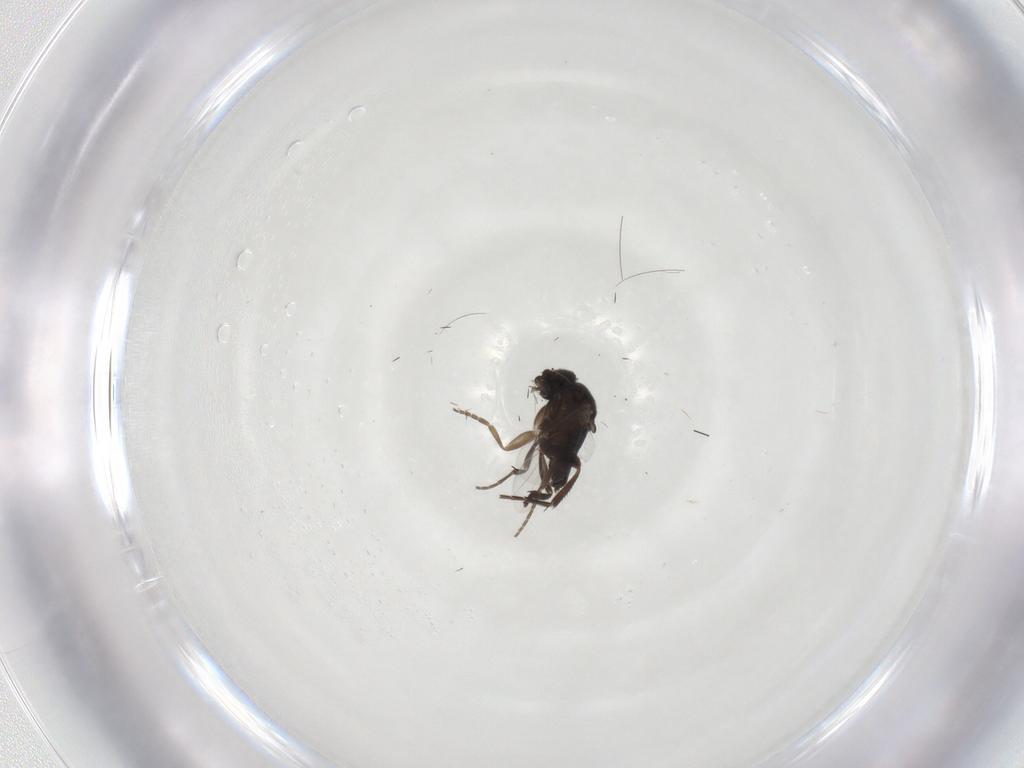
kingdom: Animalia
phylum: Arthropoda
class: Insecta
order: Diptera
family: Phoridae
